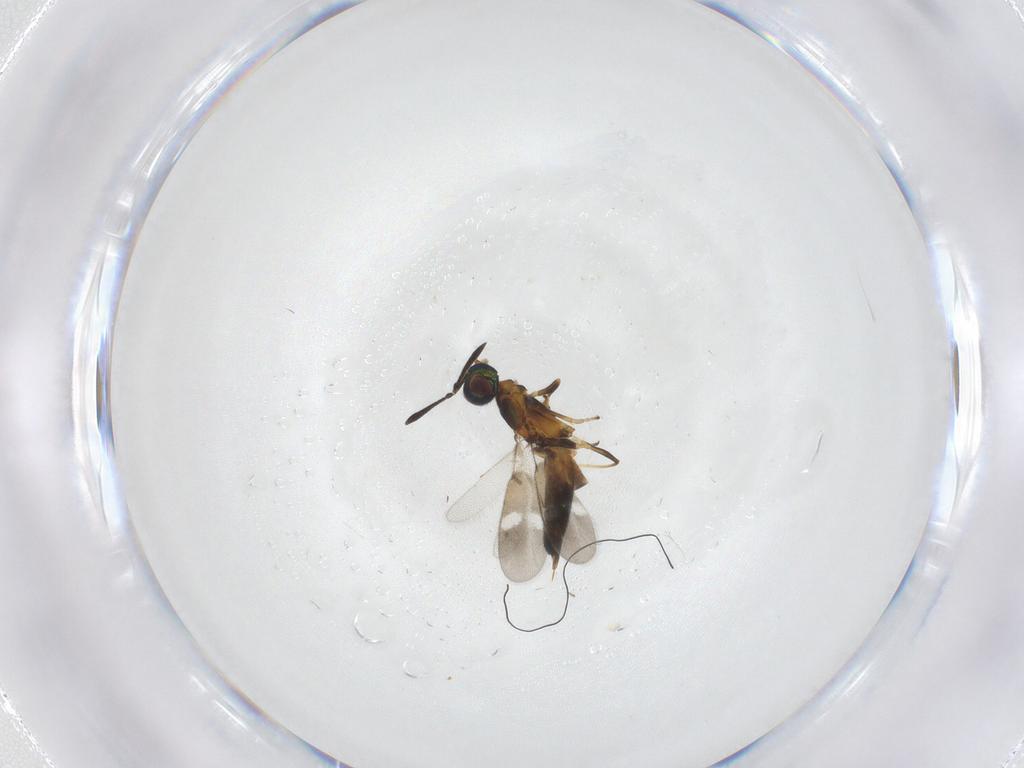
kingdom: Animalia
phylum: Arthropoda
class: Insecta
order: Hymenoptera
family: Eupelmidae
